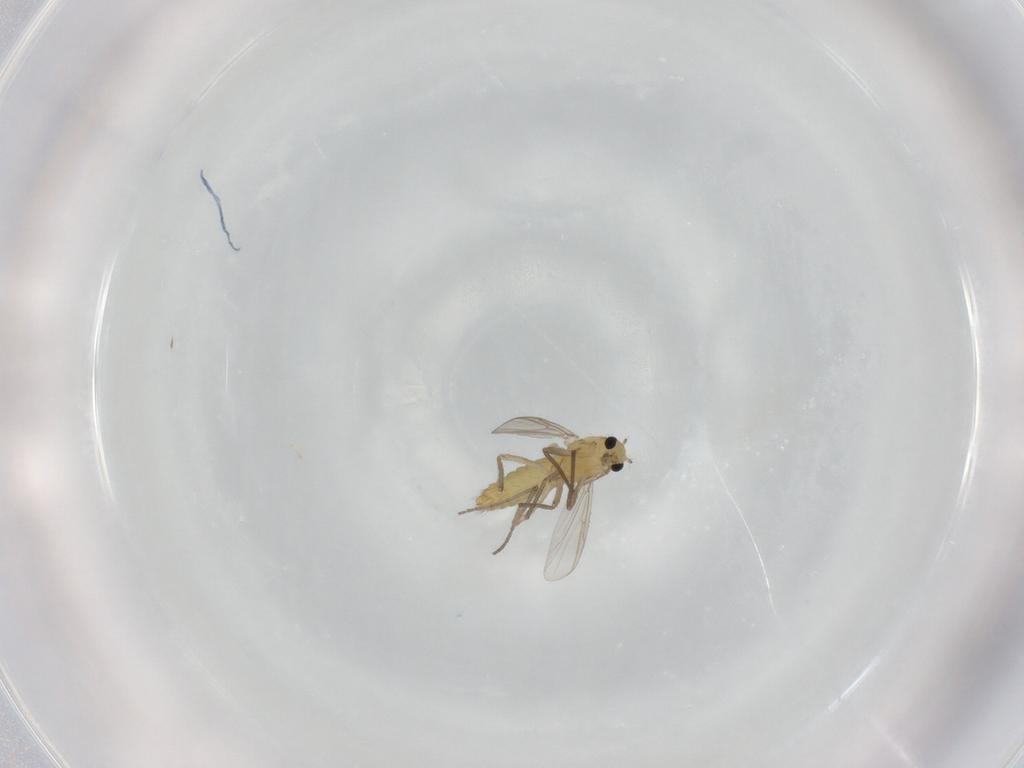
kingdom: Animalia
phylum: Arthropoda
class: Insecta
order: Diptera
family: Chironomidae
